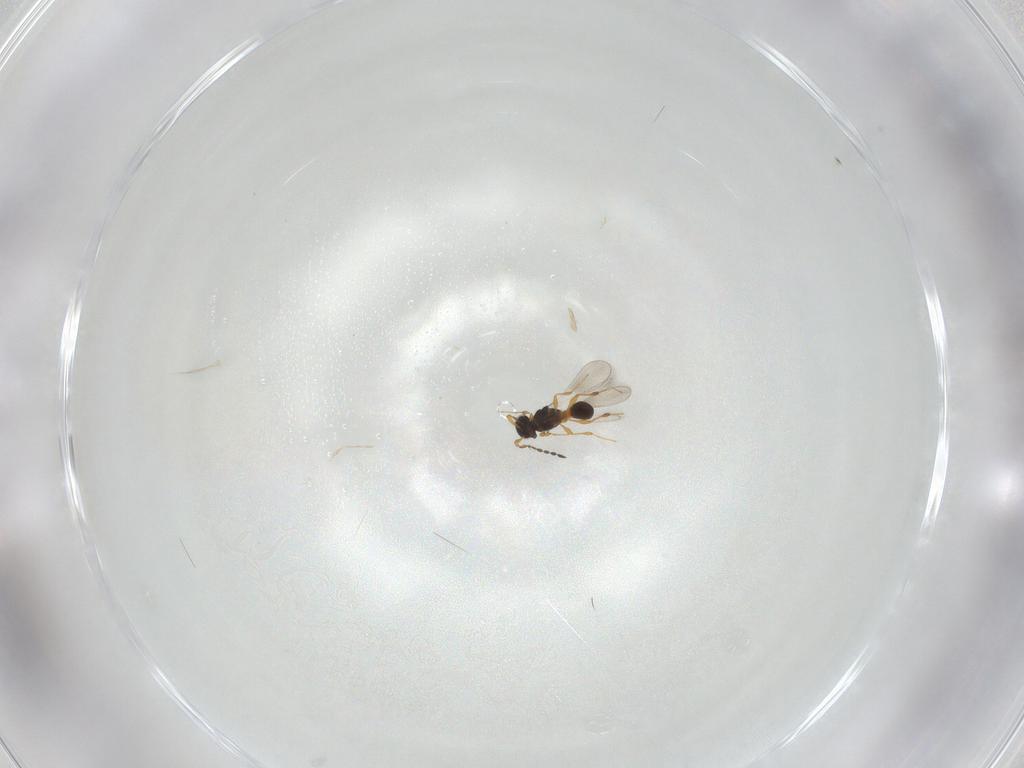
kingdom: Animalia
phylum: Arthropoda
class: Insecta
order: Hymenoptera
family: Platygastridae
